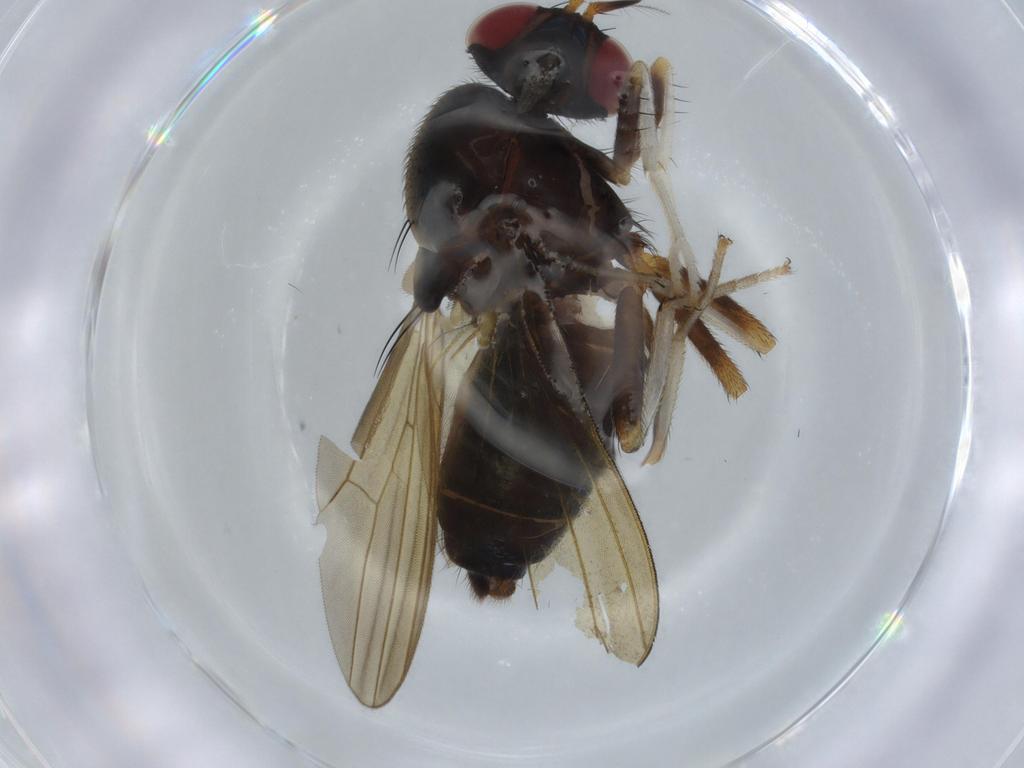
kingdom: Animalia
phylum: Arthropoda
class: Insecta
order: Diptera
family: Lauxaniidae
